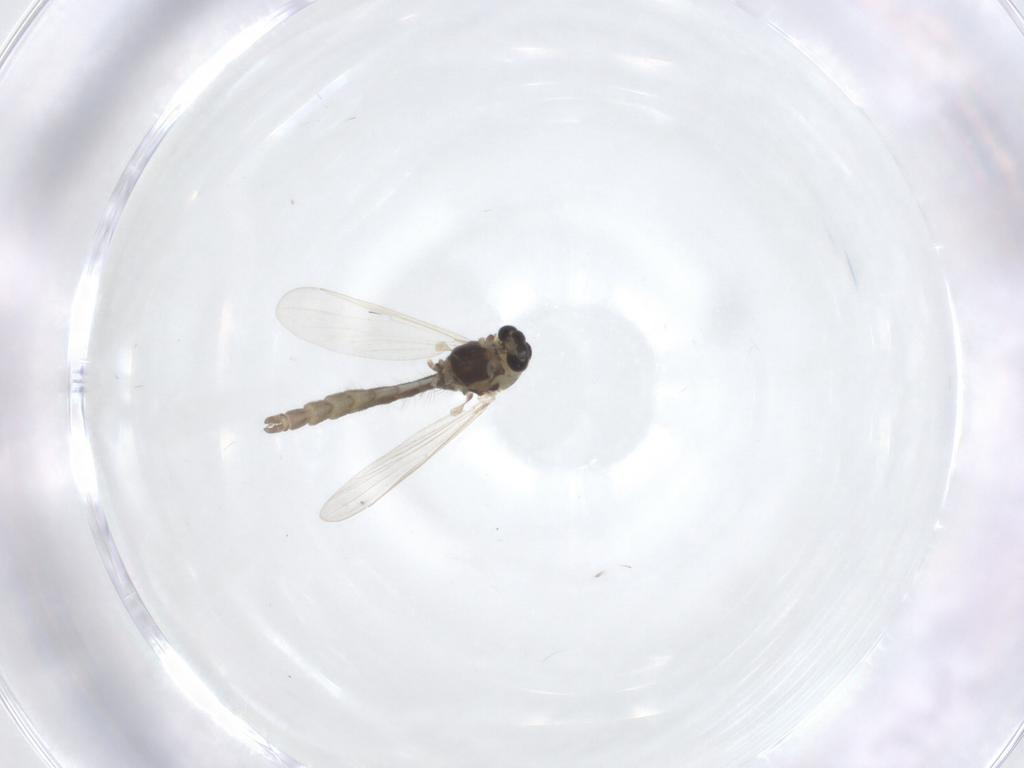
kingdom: Animalia
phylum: Arthropoda
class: Insecta
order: Diptera
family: Chironomidae
